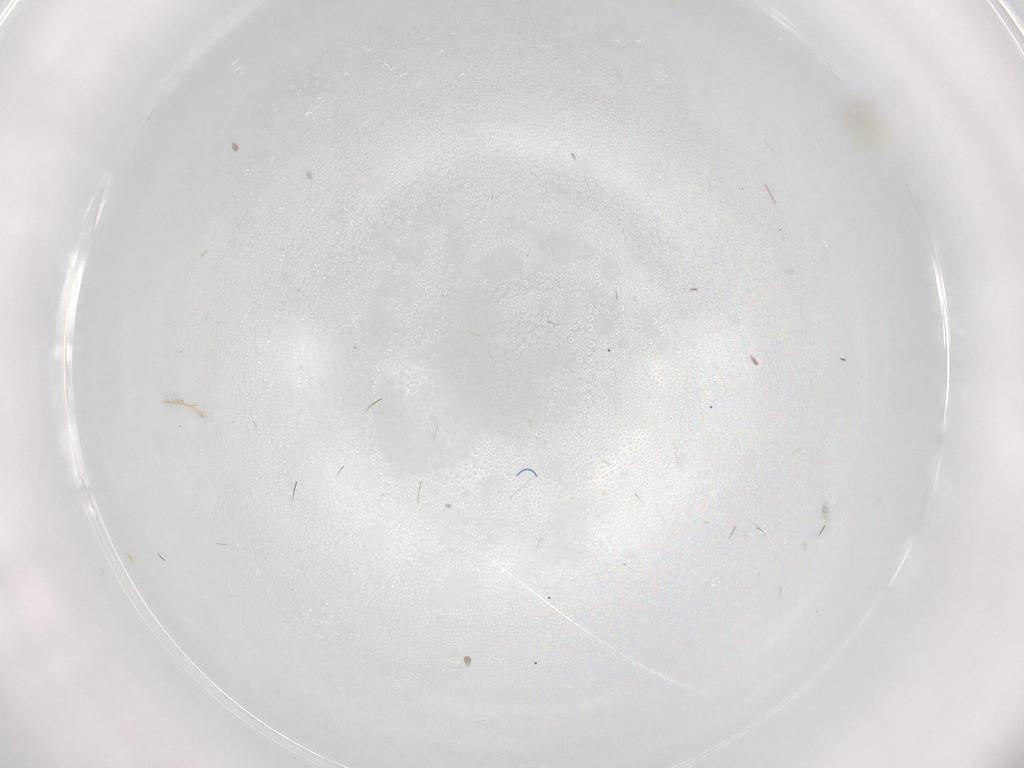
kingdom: Animalia
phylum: Arthropoda
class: Insecta
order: Diptera
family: Cecidomyiidae
